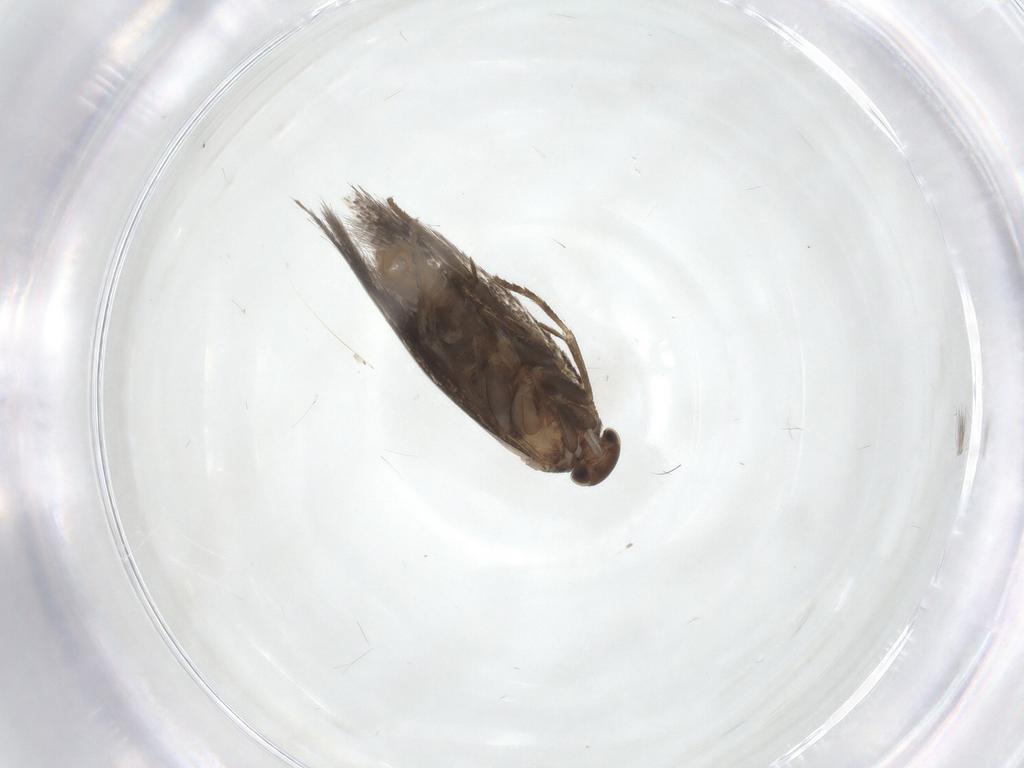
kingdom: Animalia
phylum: Arthropoda
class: Insecta
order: Lepidoptera
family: Elachistidae
